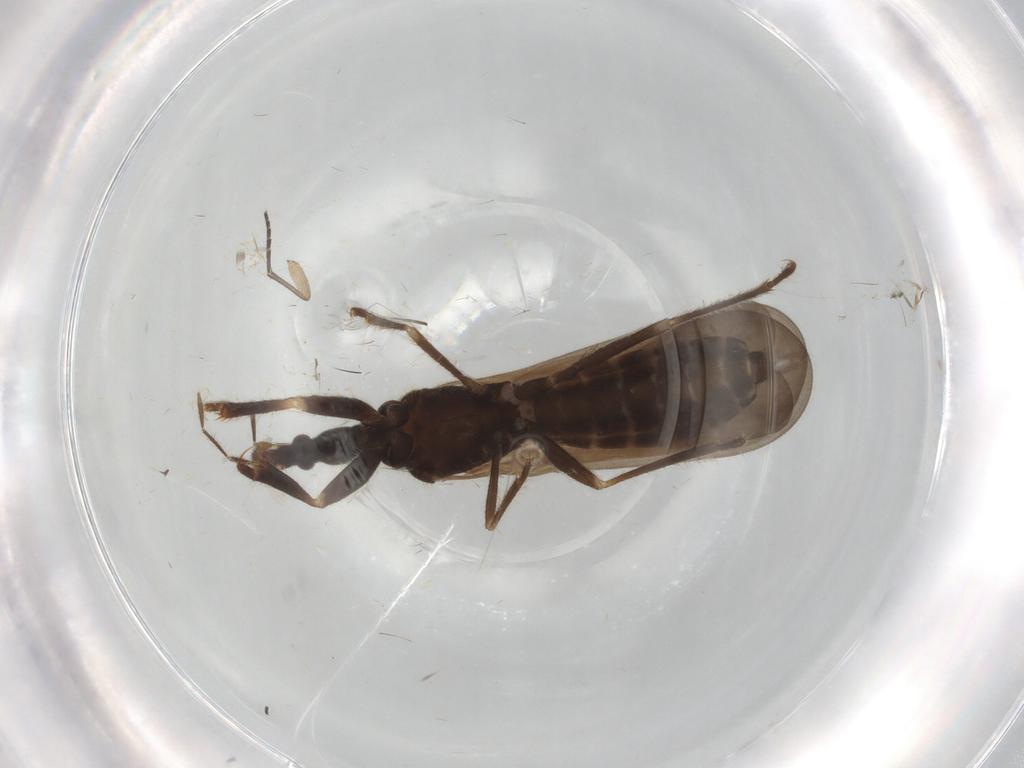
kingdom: Animalia
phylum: Arthropoda
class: Insecta
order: Hemiptera
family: Enicocephalidae
